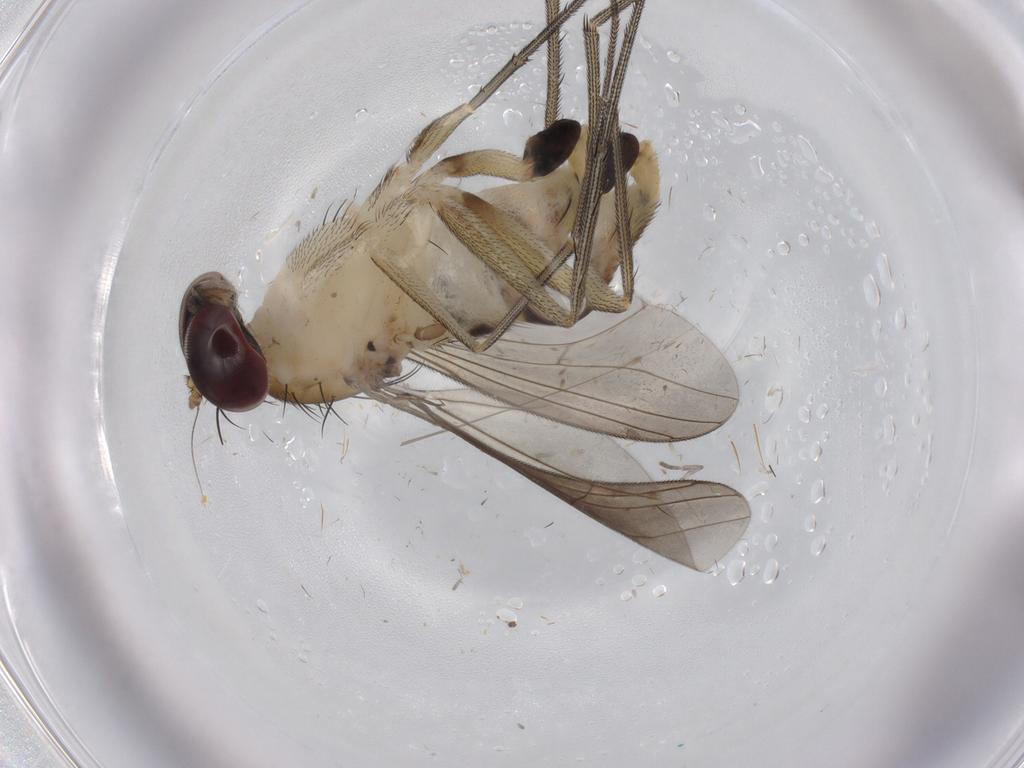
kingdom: Animalia
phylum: Arthropoda
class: Insecta
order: Diptera
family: Dolichopodidae
